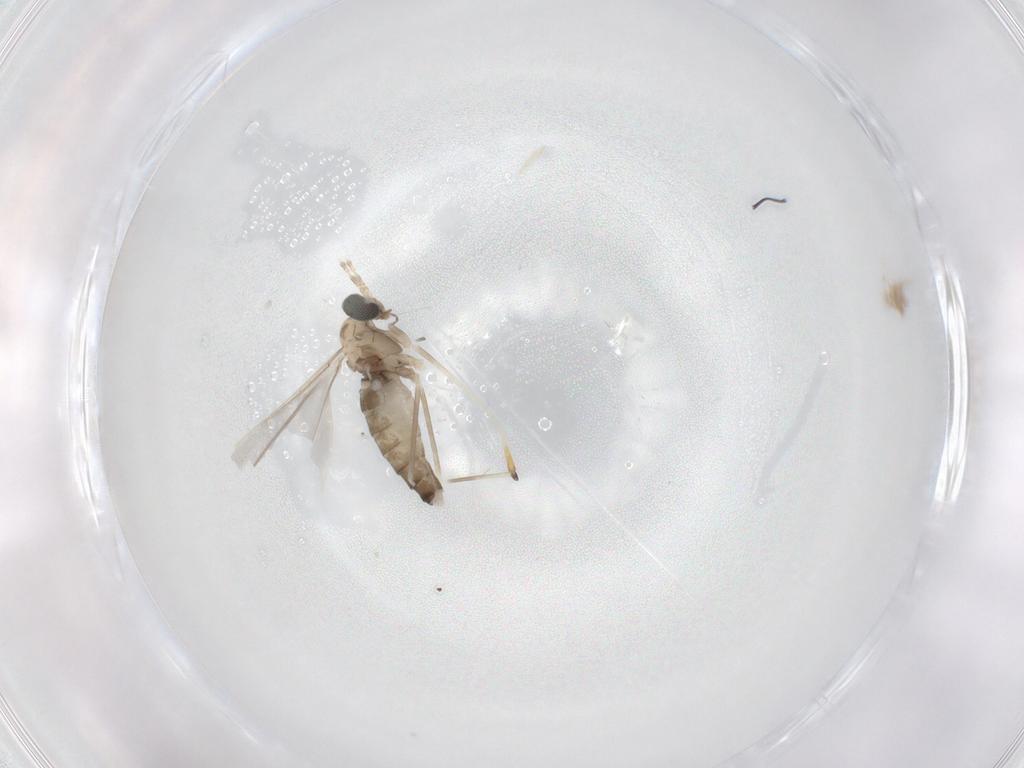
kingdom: Animalia
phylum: Arthropoda
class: Insecta
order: Diptera
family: Sciaridae
